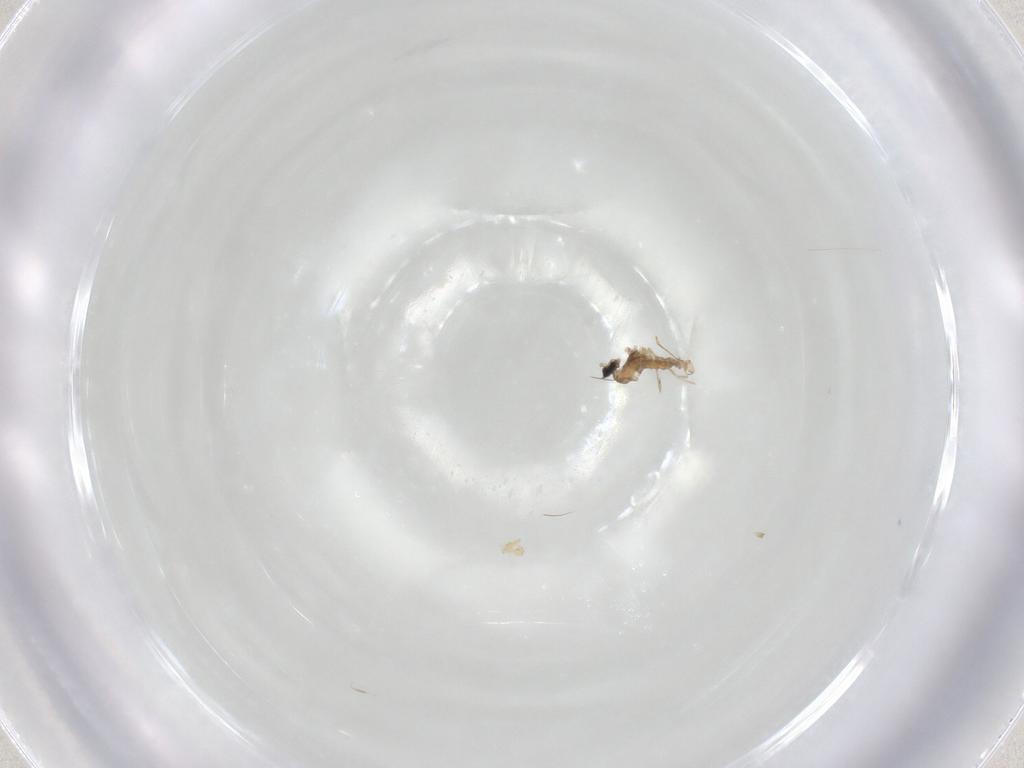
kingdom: Animalia
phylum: Arthropoda
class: Insecta
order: Diptera
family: Cecidomyiidae
